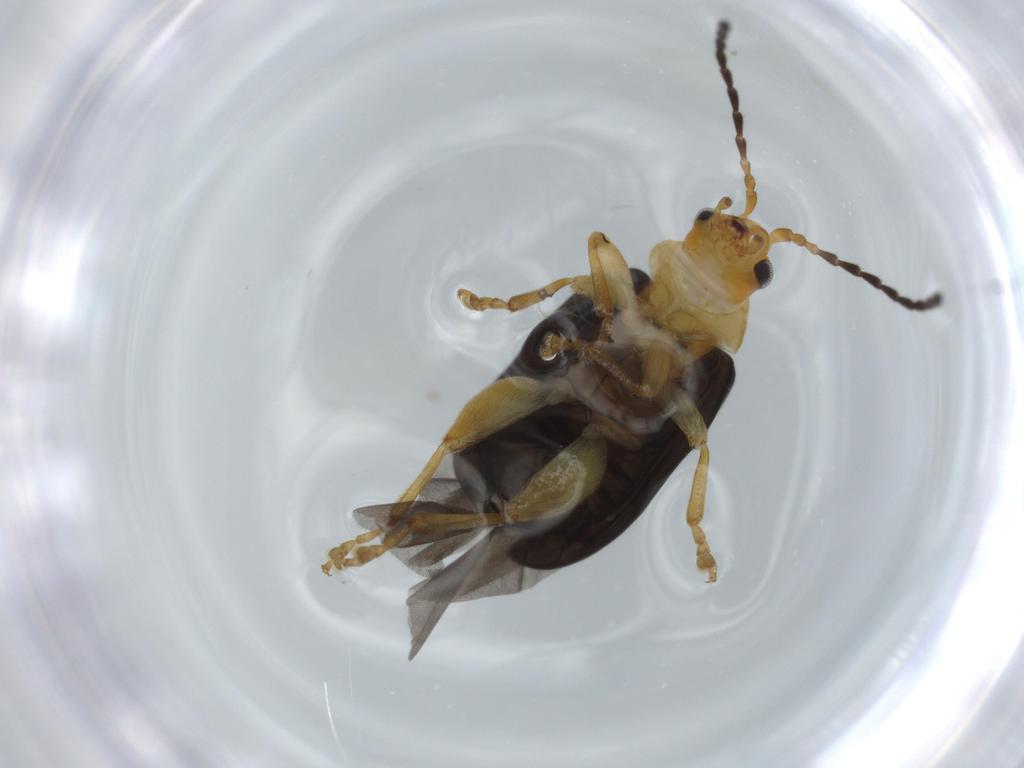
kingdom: Animalia
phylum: Arthropoda
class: Insecta
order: Coleoptera
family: Chrysomelidae
